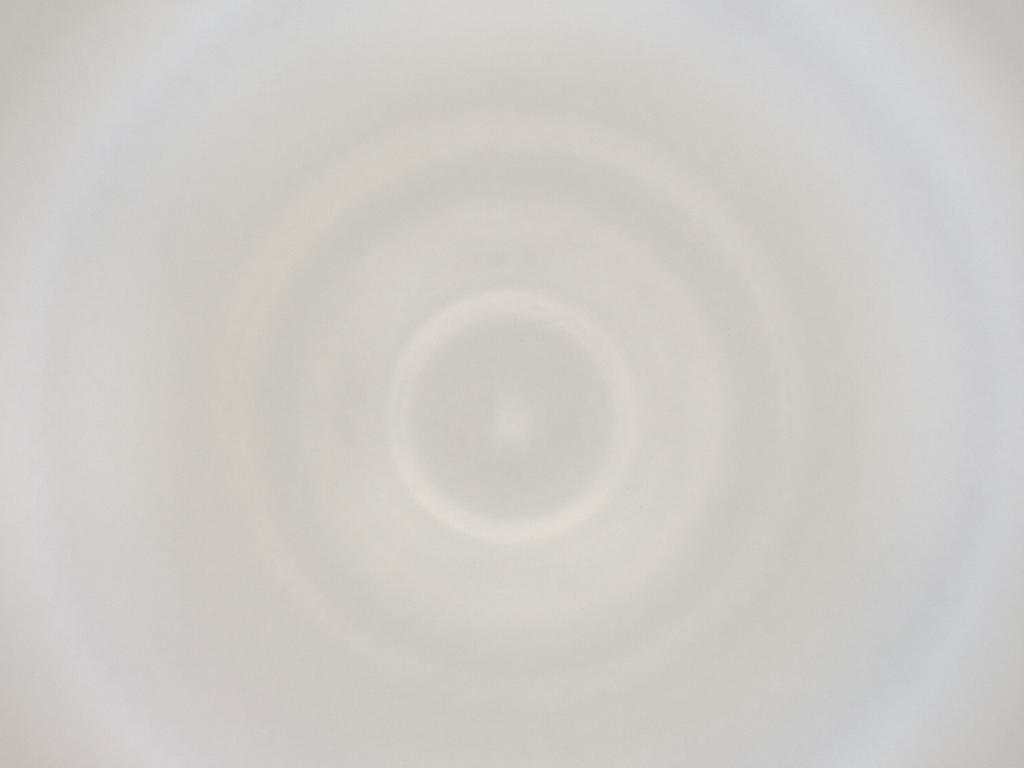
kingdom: Animalia
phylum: Arthropoda
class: Insecta
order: Diptera
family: Cecidomyiidae
